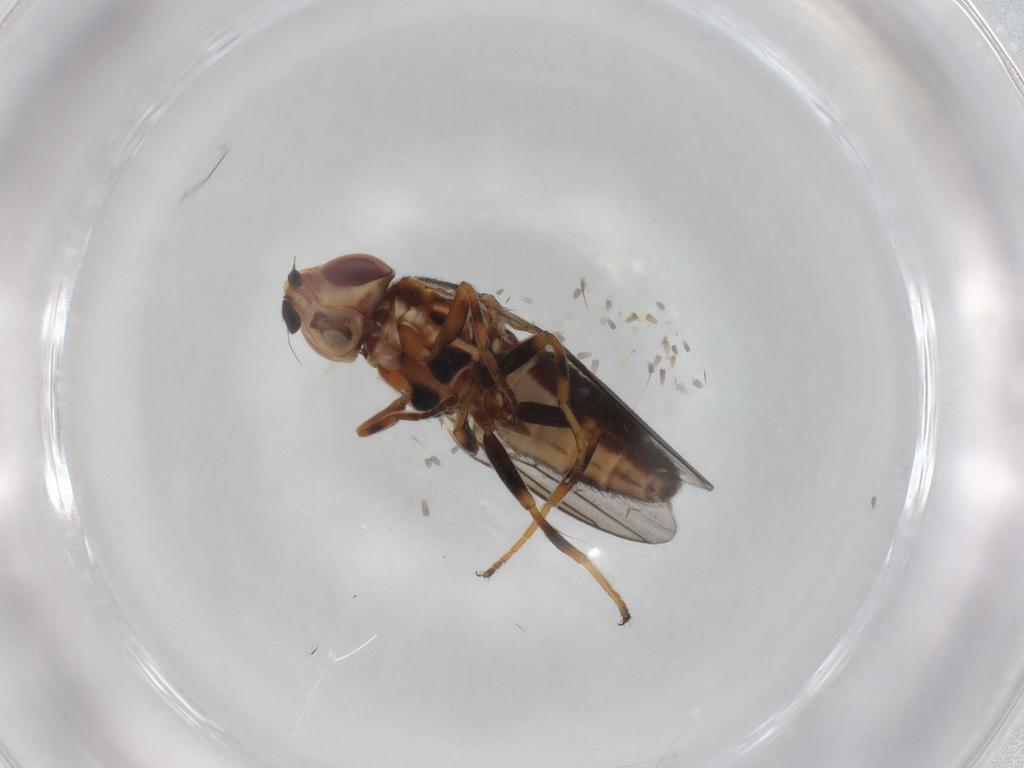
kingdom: Animalia
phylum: Arthropoda
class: Insecta
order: Diptera
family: Chloropidae
